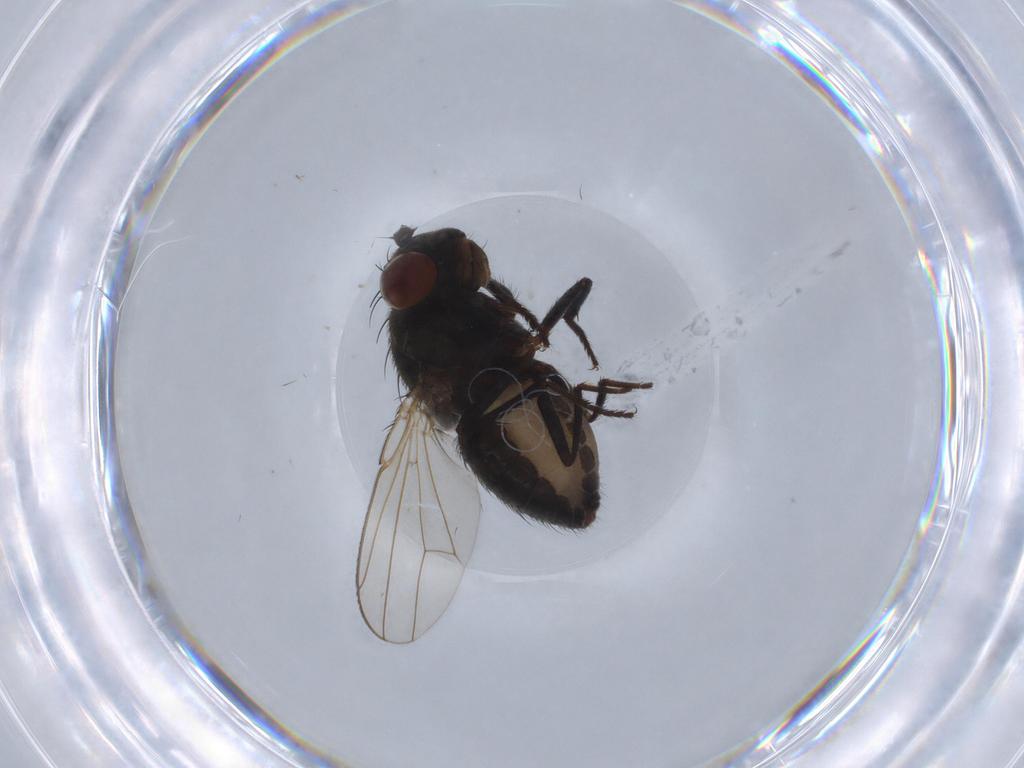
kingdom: Animalia
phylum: Arthropoda
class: Insecta
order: Diptera
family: Ephydridae
